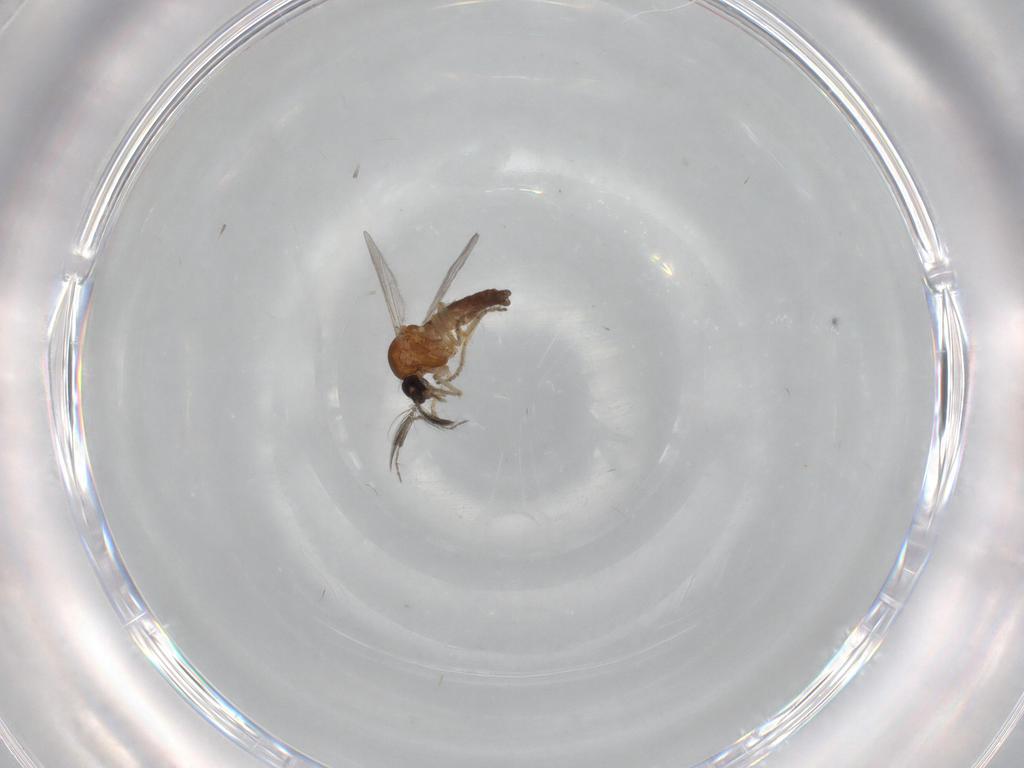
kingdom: Animalia
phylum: Arthropoda
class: Insecta
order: Diptera
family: Ceratopogonidae
